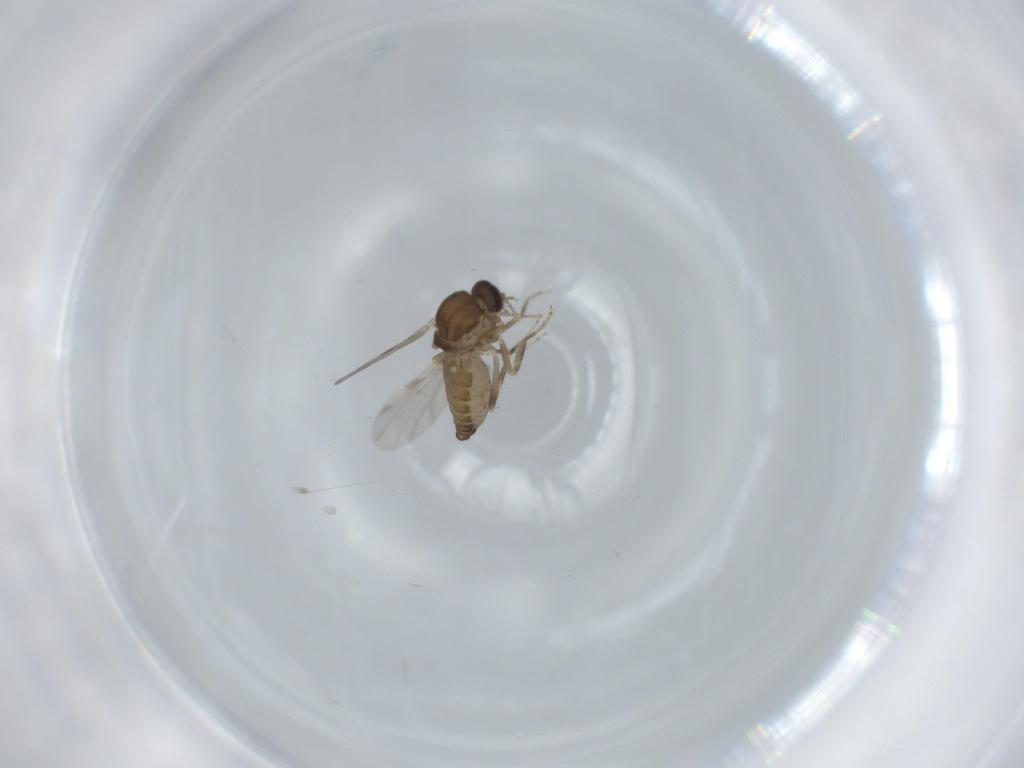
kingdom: Animalia
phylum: Arthropoda
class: Insecta
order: Diptera
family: Ceratopogonidae
